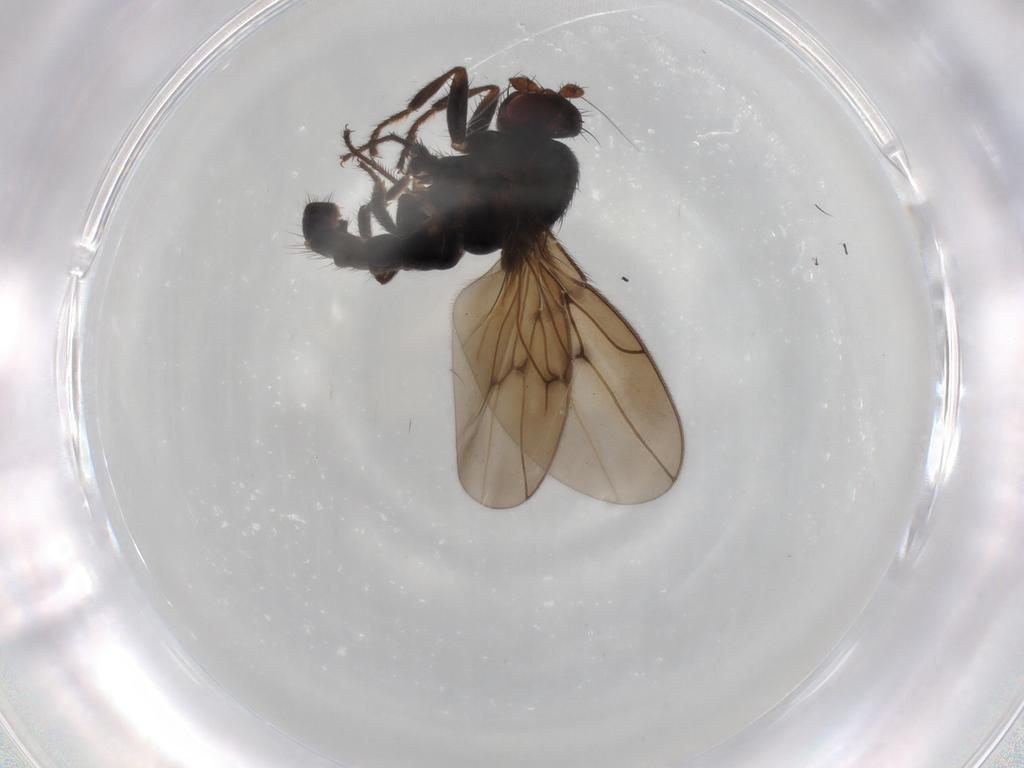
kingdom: Animalia
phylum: Arthropoda
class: Insecta
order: Diptera
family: Sphaeroceridae
